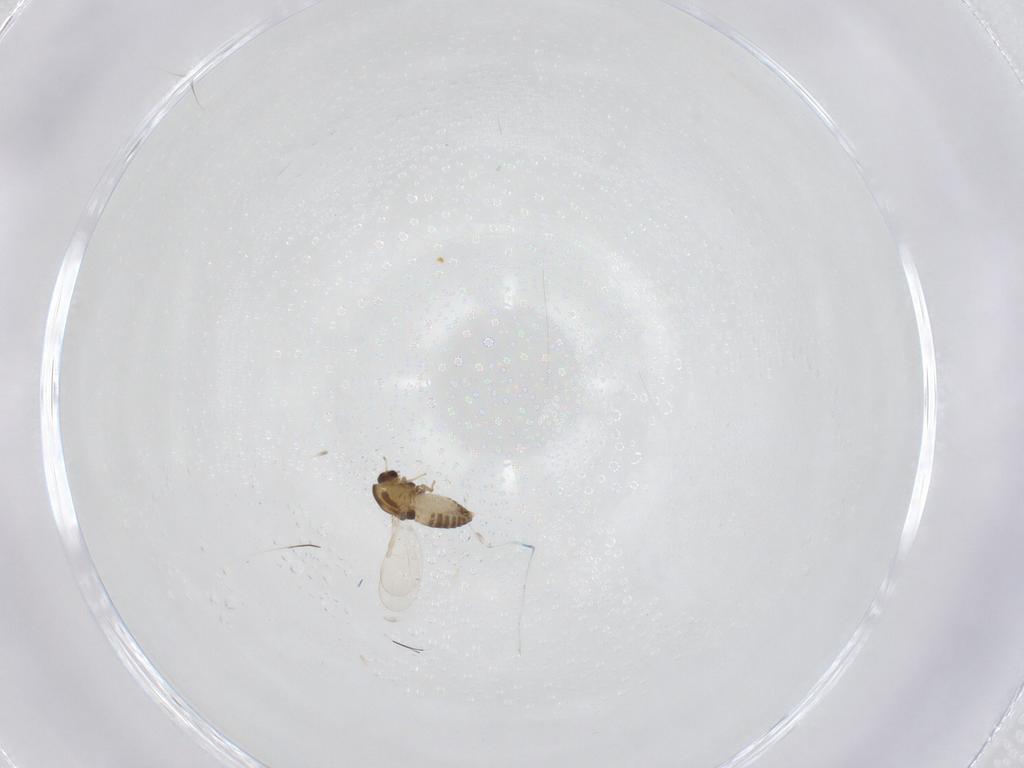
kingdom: Animalia
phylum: Arthropoda
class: Insecta
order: Diptera
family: Chironomidae
